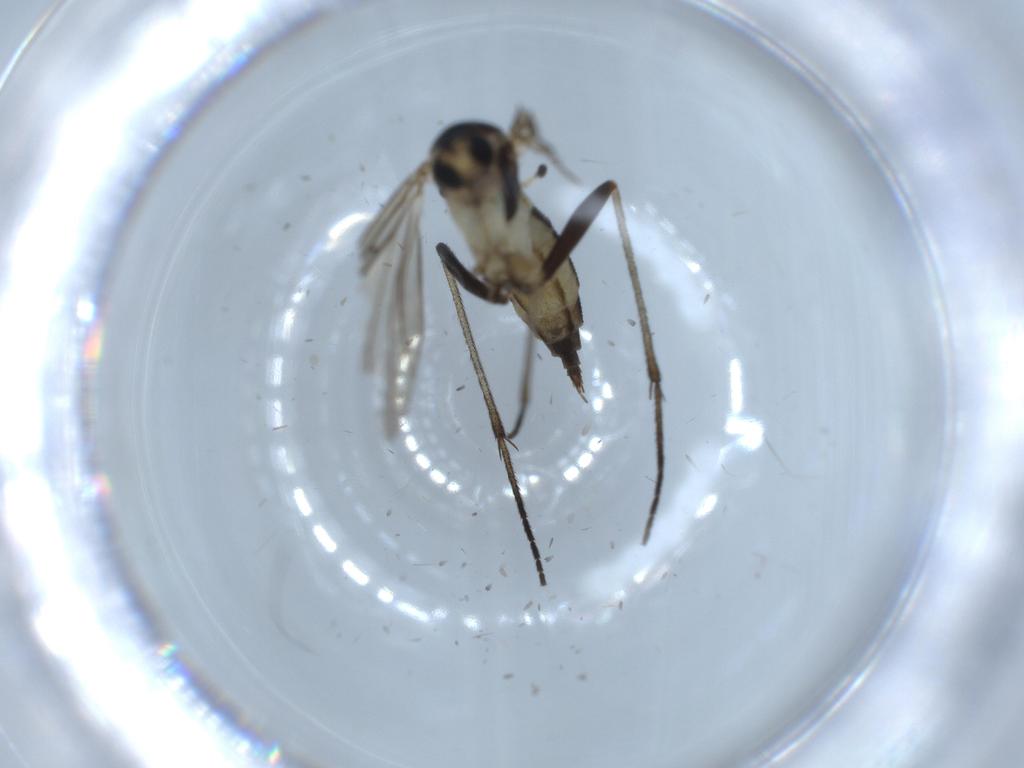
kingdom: Animalia
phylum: Arthropoda
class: Insecta
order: Diptera
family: Sciaridae
